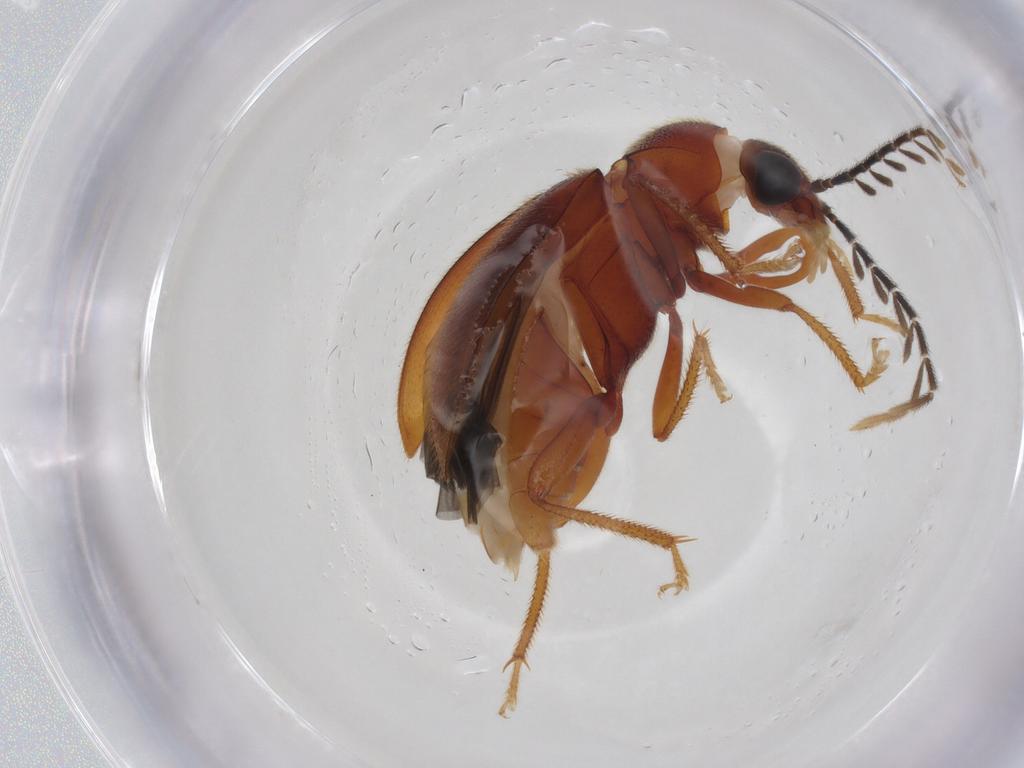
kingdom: Animalia
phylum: Arthropoda
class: Insecta
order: Coleoptera
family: Ptilodactylidae
